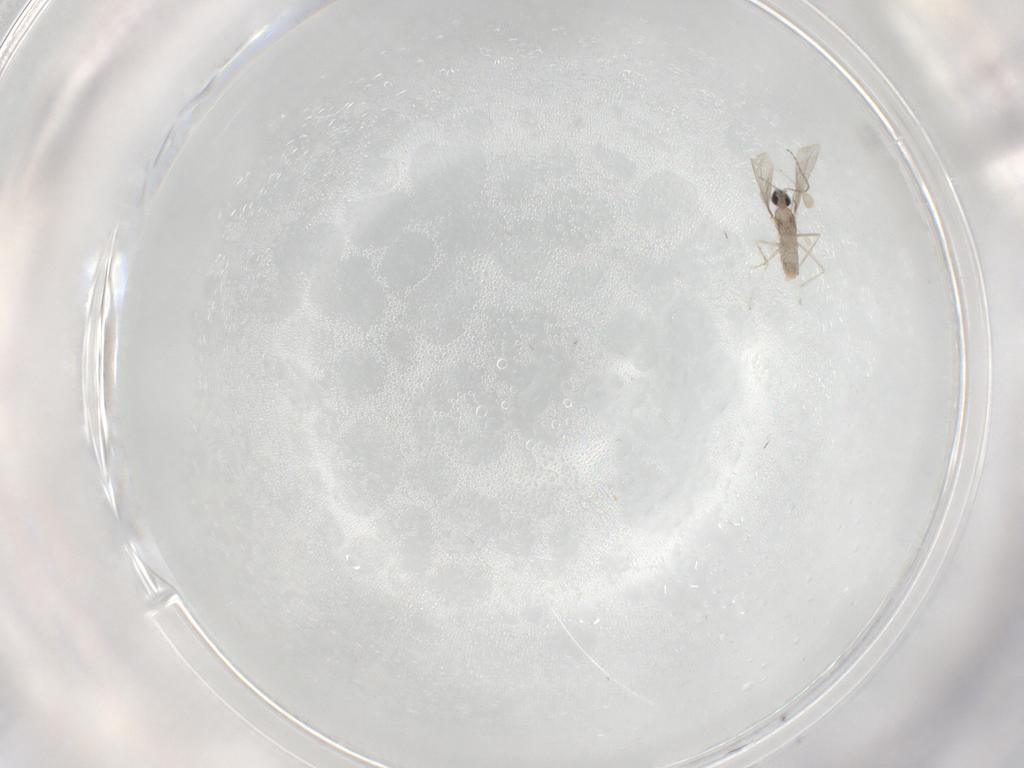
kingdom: Animalia
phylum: Arthropoda
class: Insecta
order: Diptera
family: Cecidomyiidae
